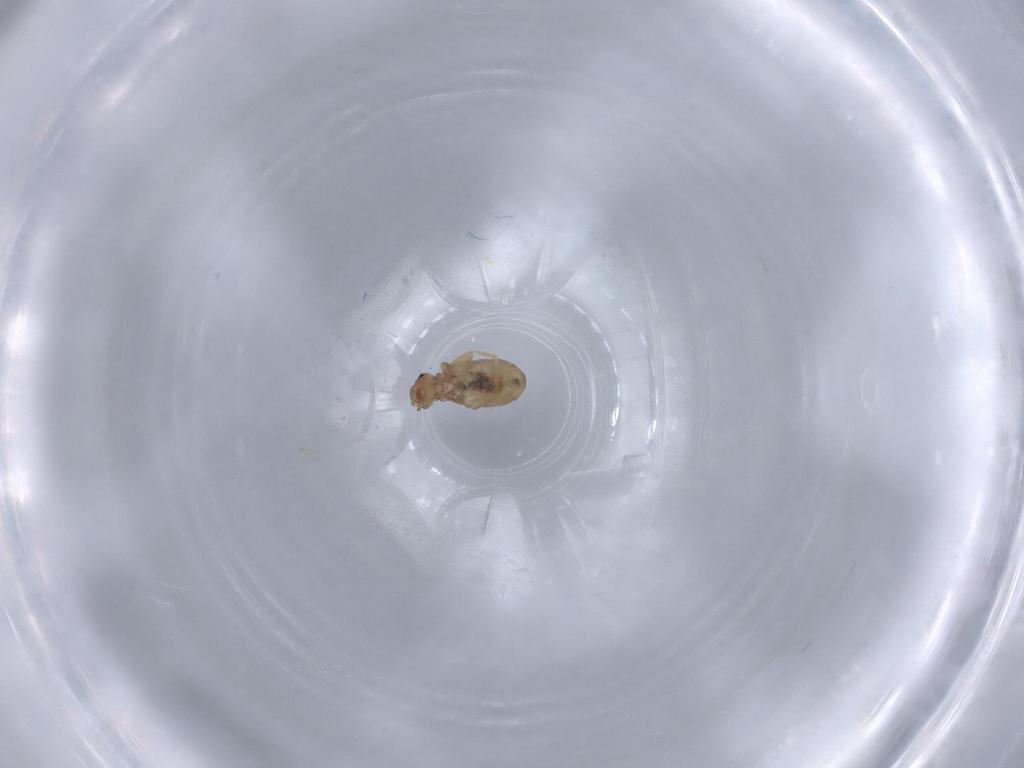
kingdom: Animalia
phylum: Arthropoda
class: Insecta
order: Psocodea
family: Liposcelididae
